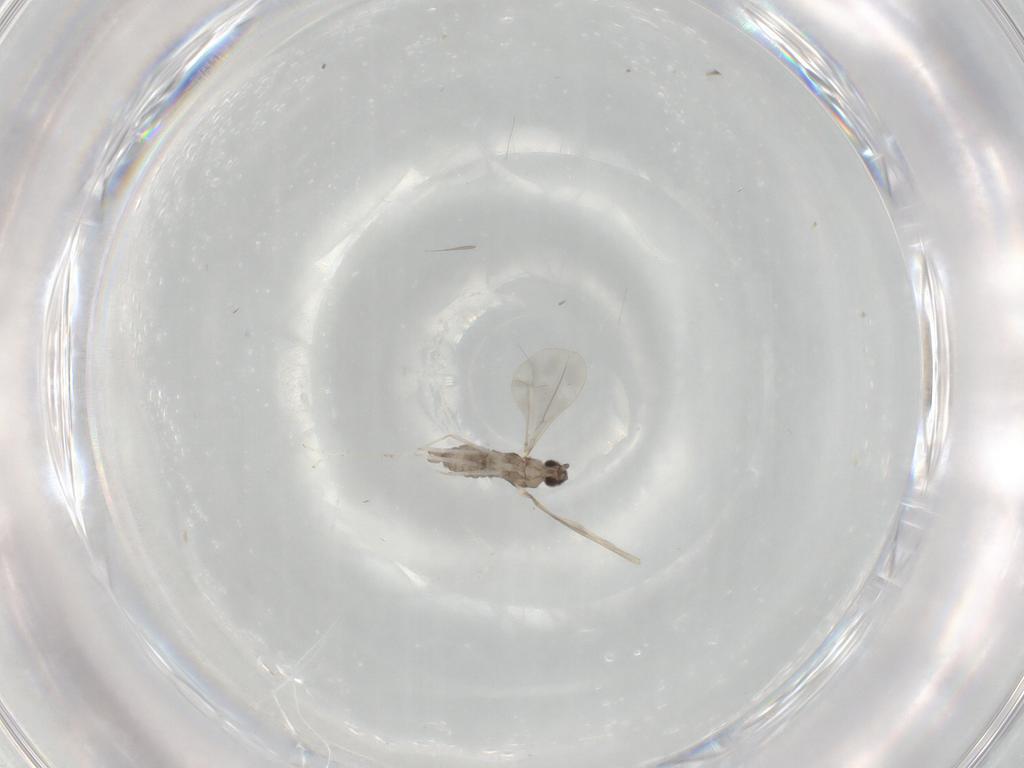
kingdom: Animalia
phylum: Arthropoda
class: Insecta
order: Diptera
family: Cecidomyiidae
